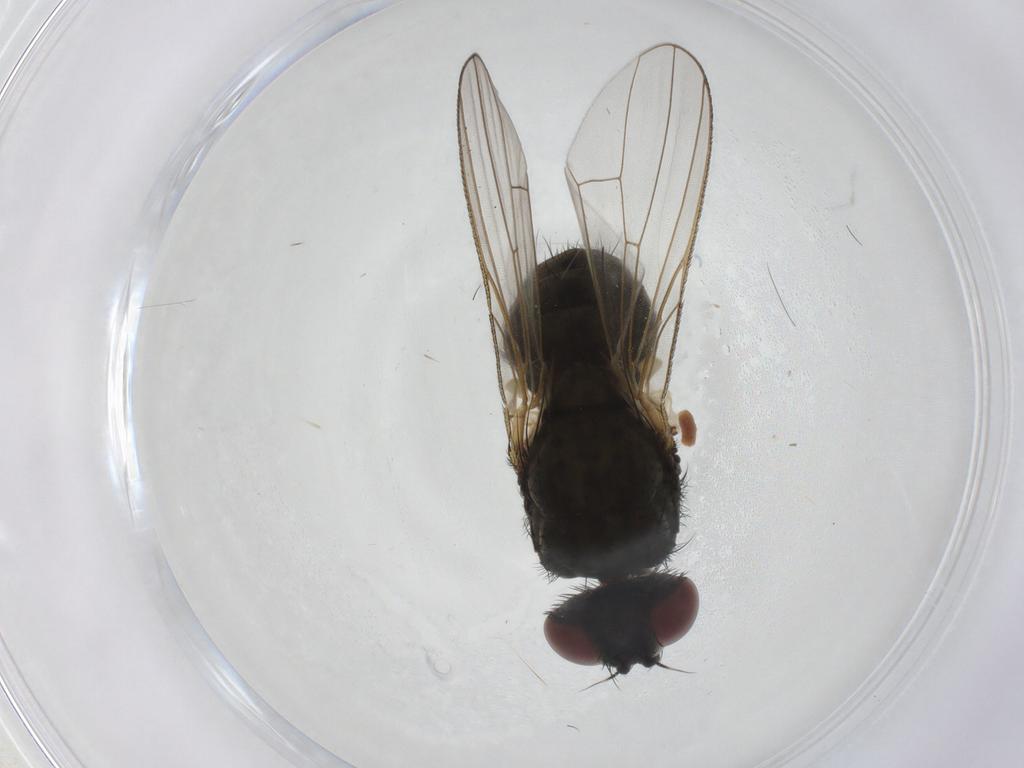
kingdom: Animalia
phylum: Arthropoda
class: Insecta
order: Diptera
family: Anthomyiidae
